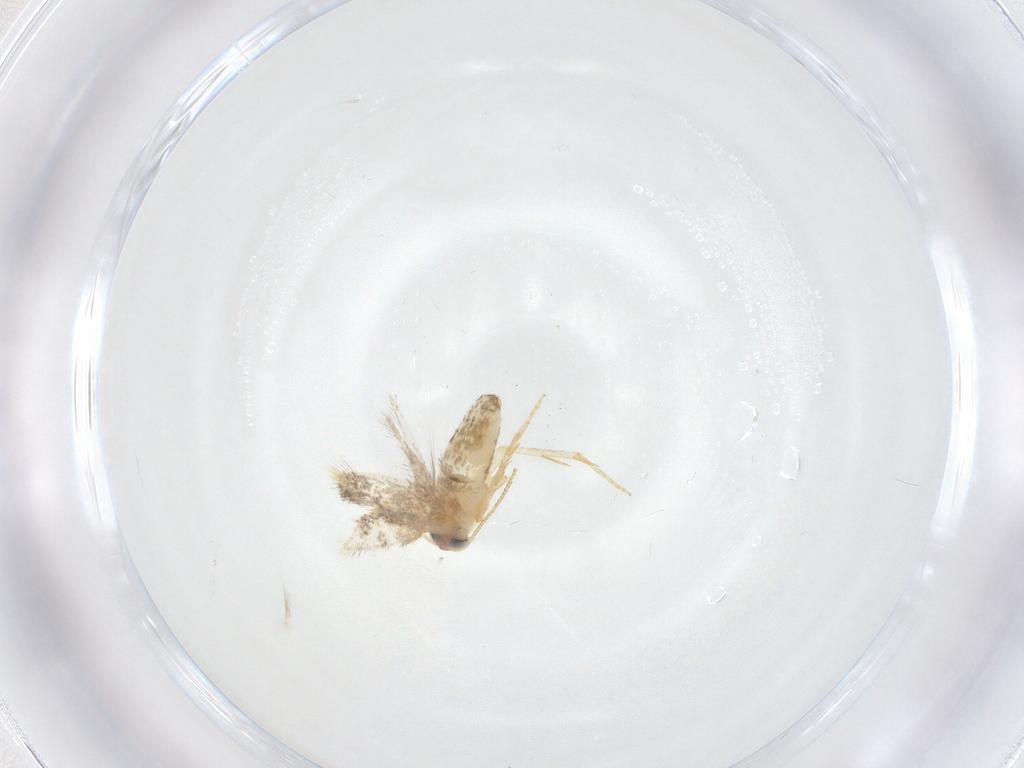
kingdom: Animalia
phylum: Arthropoda
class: Insecta
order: Lepidoptera
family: Nepticulidae
